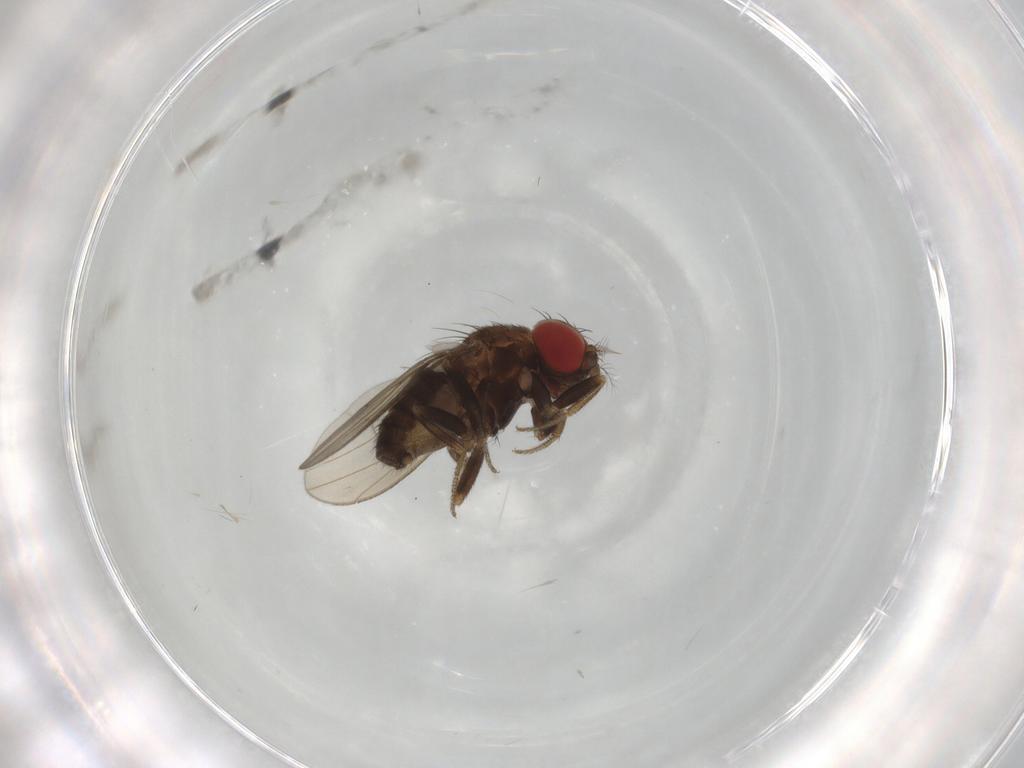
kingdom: Animalia
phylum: Arthropoda
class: Insecta
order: Diptera
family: Drosophilidae
